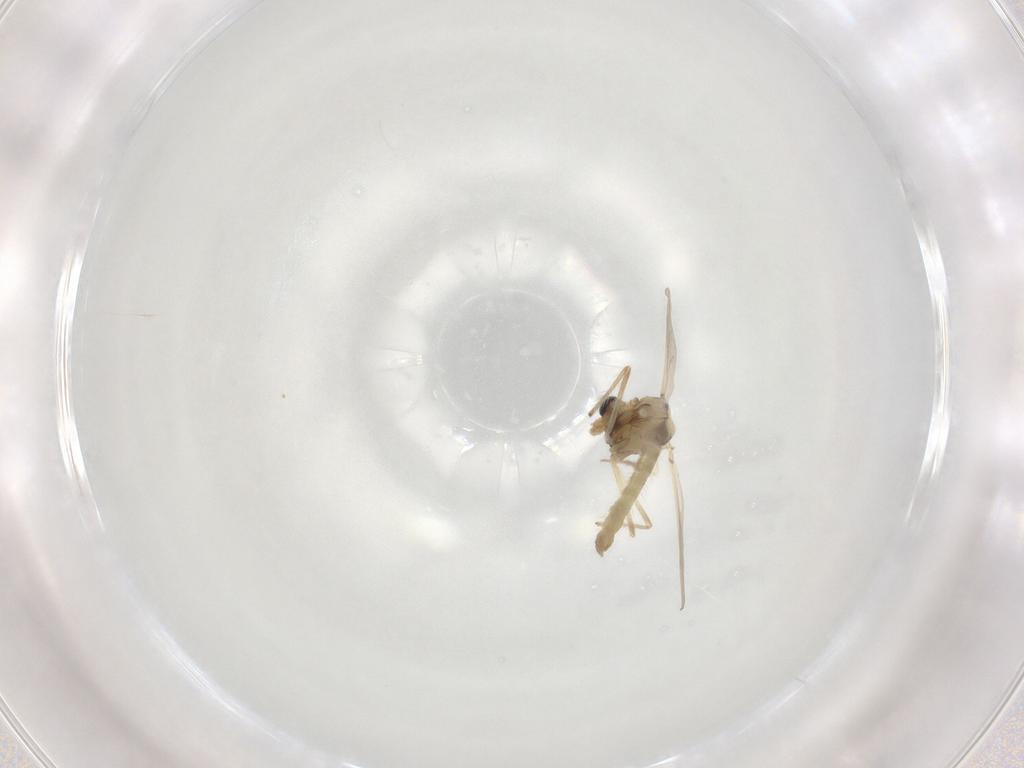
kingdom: Animalia
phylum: Arthropoda
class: Insecta
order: Diptera
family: Chironomidae
